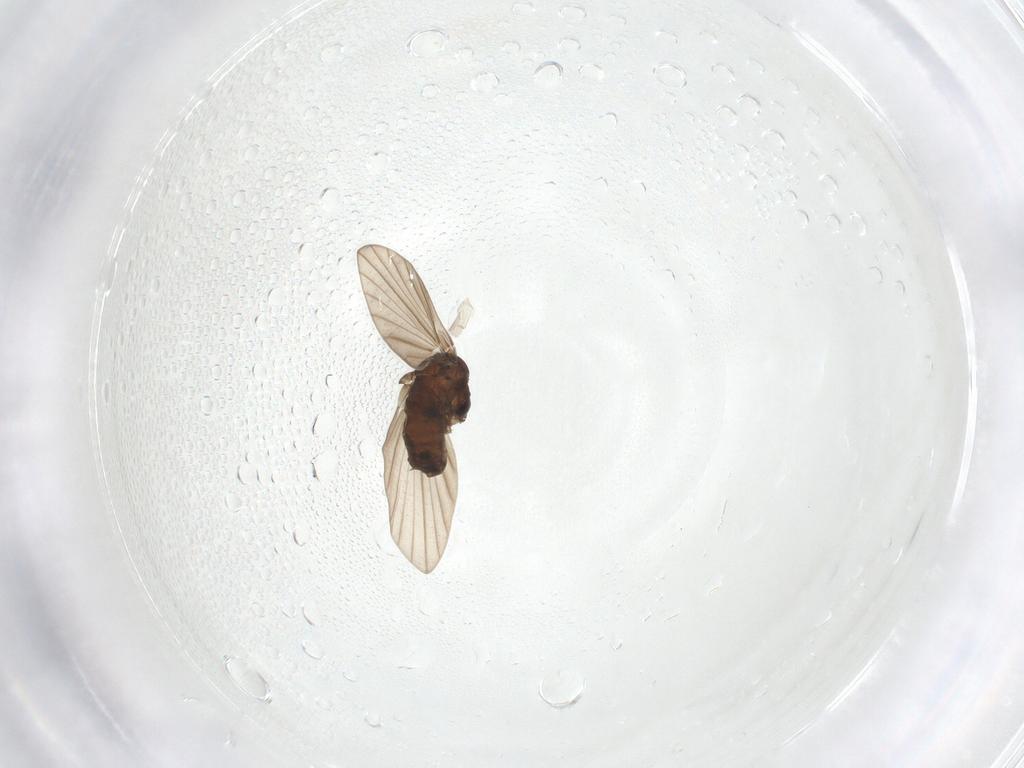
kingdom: Animalia
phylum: Arthropoda
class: Insecta
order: Diptera
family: Psychodidae
